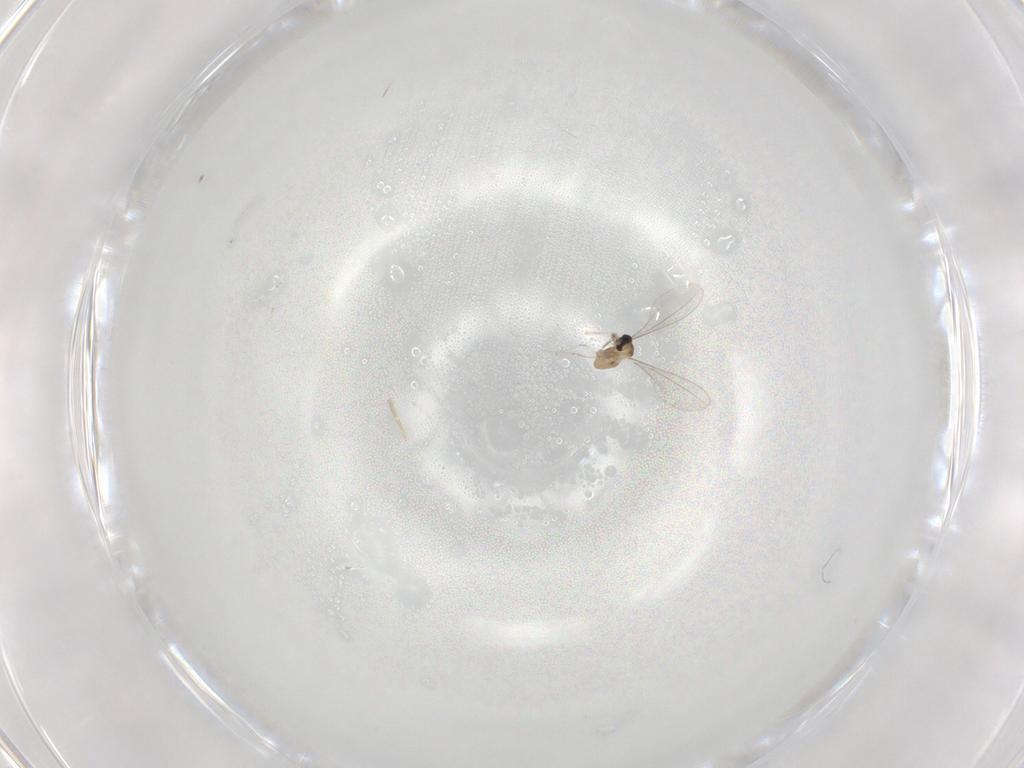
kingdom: Animalia
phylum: Arthropoda
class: Insecta
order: Diptera
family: Cecidomyiidae
